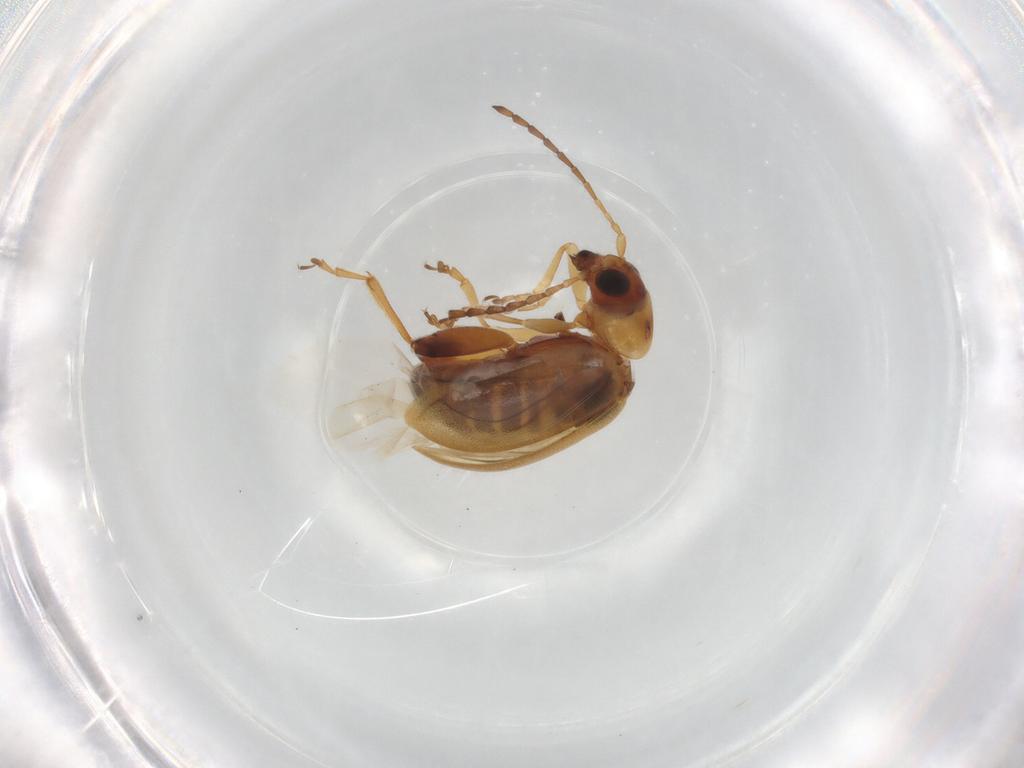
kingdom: Animalia
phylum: Arthropoda
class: Insecta
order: Coleoptera
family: Chrysomelidae
